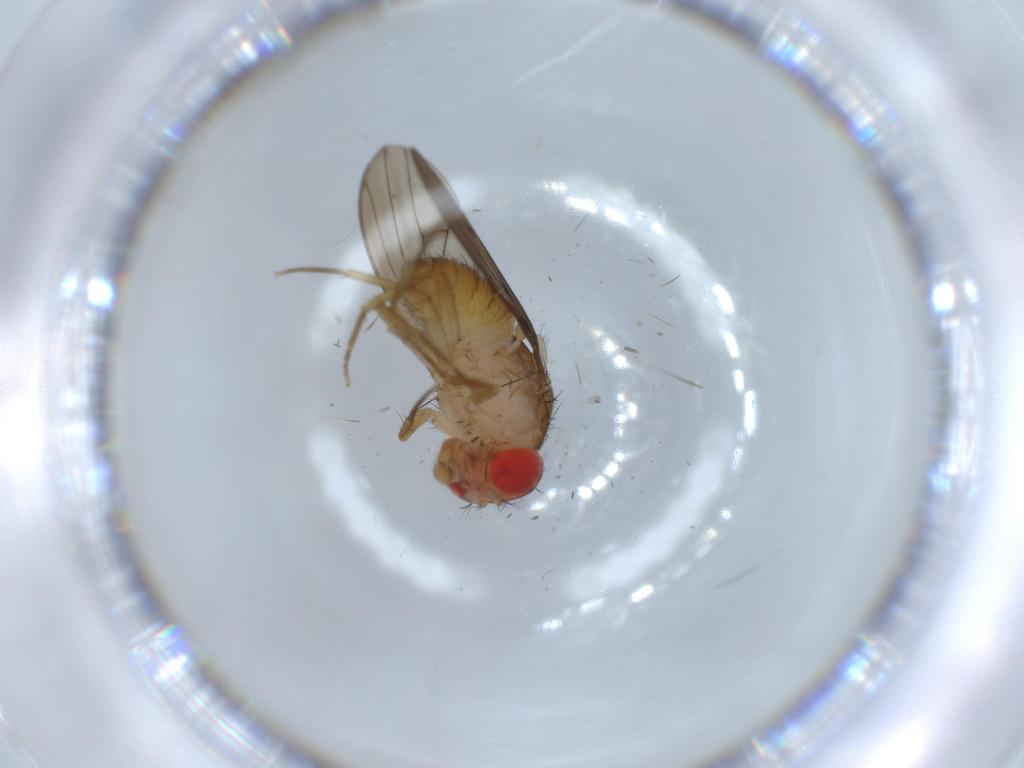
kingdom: Animalia
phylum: Arthropoda
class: Insecta
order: Diptera
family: Drosophilidae
